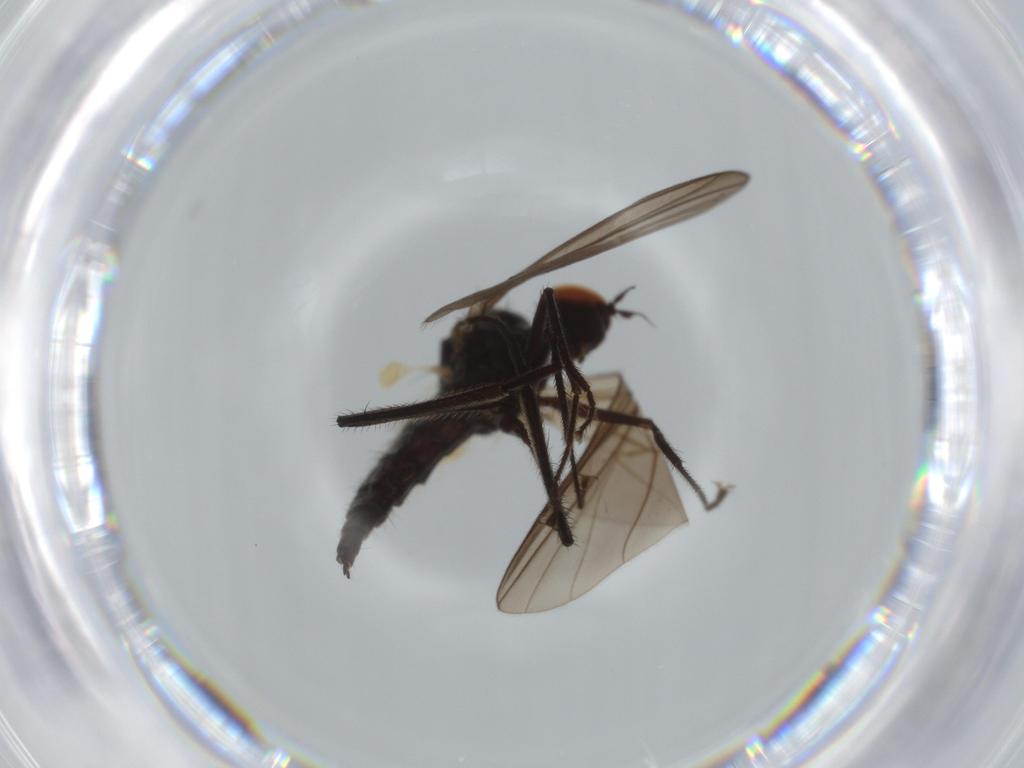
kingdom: Animalia
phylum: Arthropoda
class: Insecta
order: Diptera
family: Hybotidae
